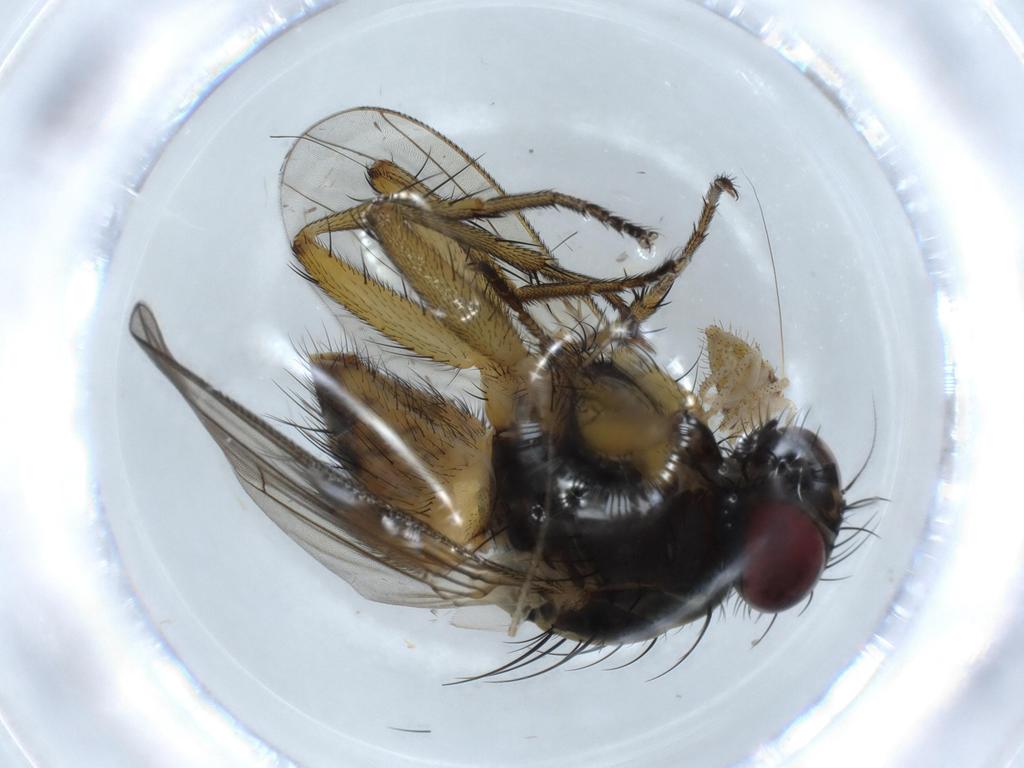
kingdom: Animalia
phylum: Arthropoda
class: Insecta
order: Diptera
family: Muscidae
